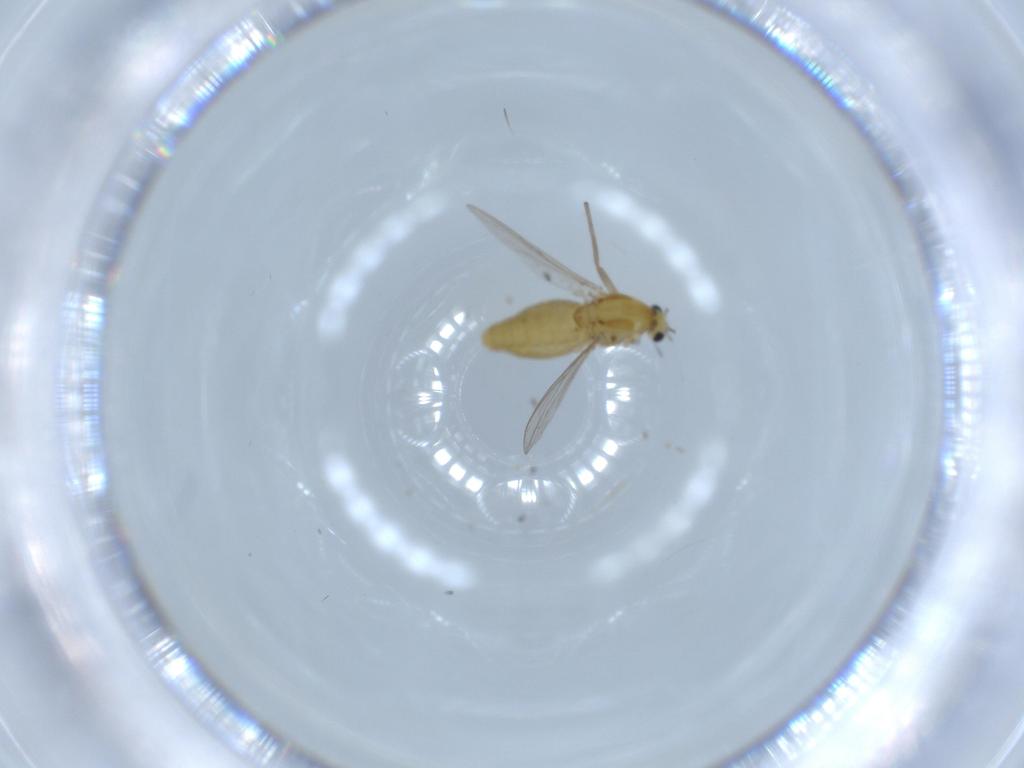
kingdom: Animalia
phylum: Arthropoda
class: Insecta
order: Diptera
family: Chironomidae
